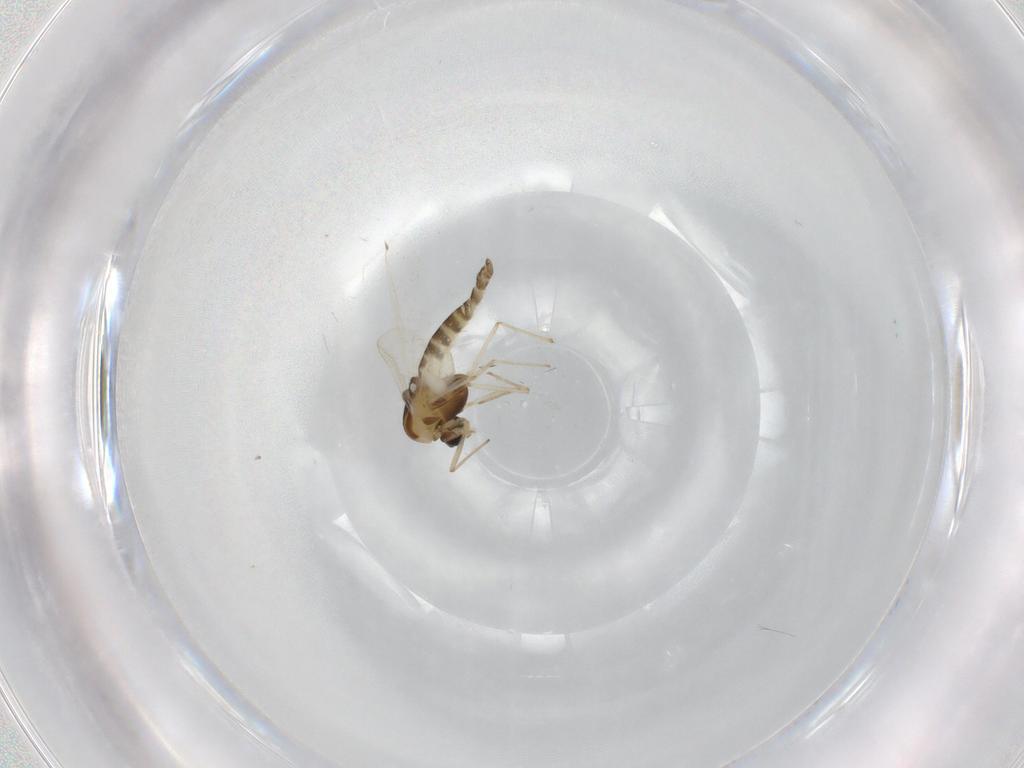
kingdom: Animalia
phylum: Arthropoda
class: Insecta
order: Diptera
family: Chironomidae
